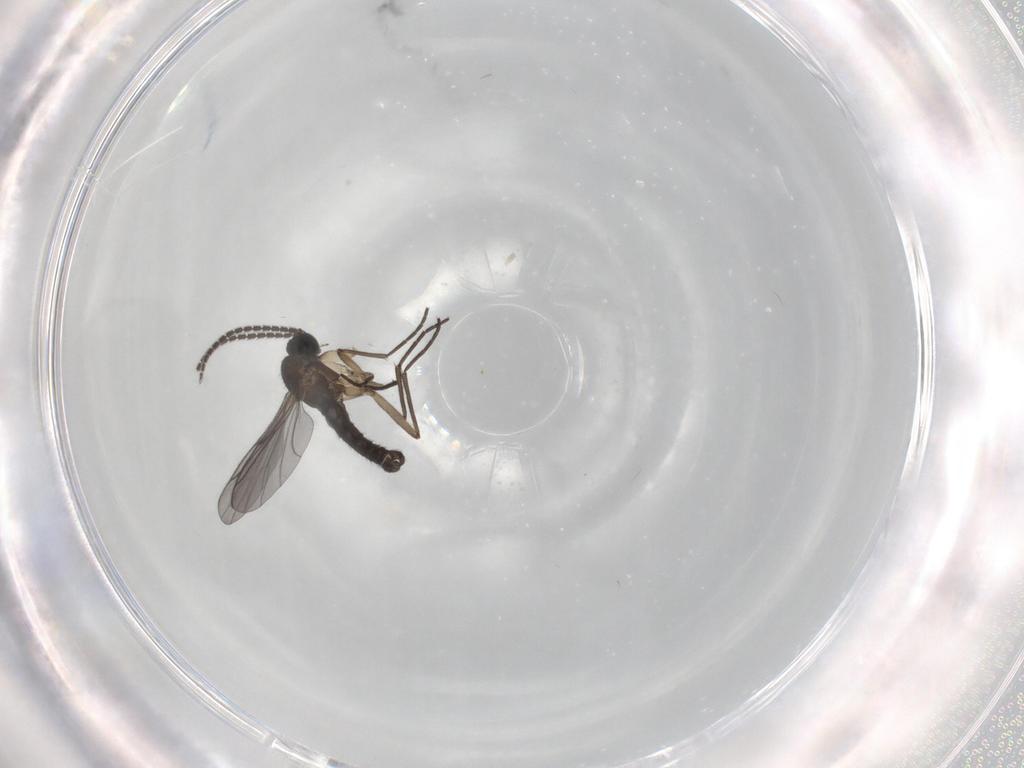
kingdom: Animalia
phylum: Arthropoda
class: Insecta
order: Diptera
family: Sciaridae
